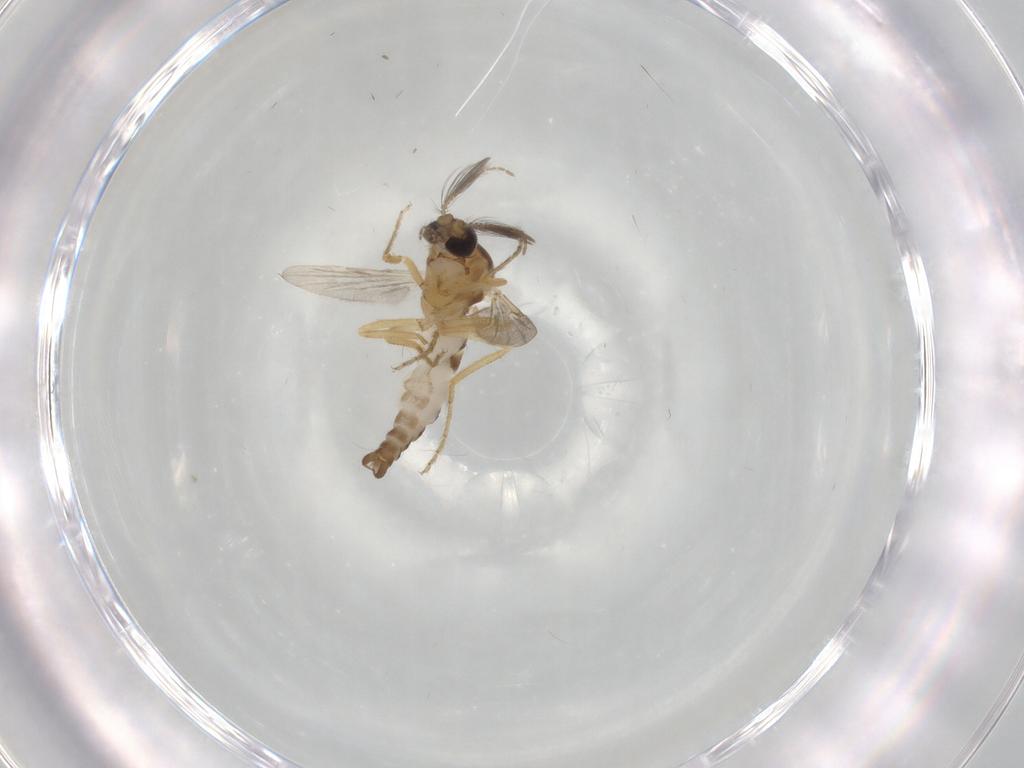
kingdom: Animalia
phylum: Arthropoda
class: Insecta
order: Diptera
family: Ceratopogonidae
